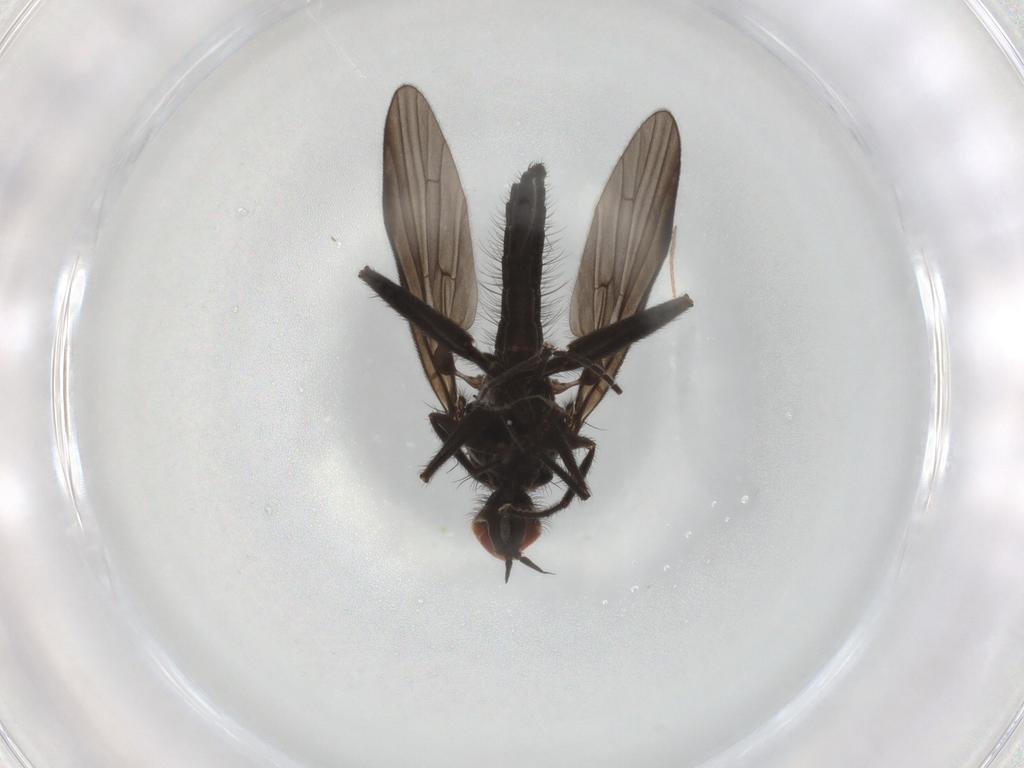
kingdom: Animalia
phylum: Arthropoda
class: Insecta
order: Diptera
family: Hybotidae
